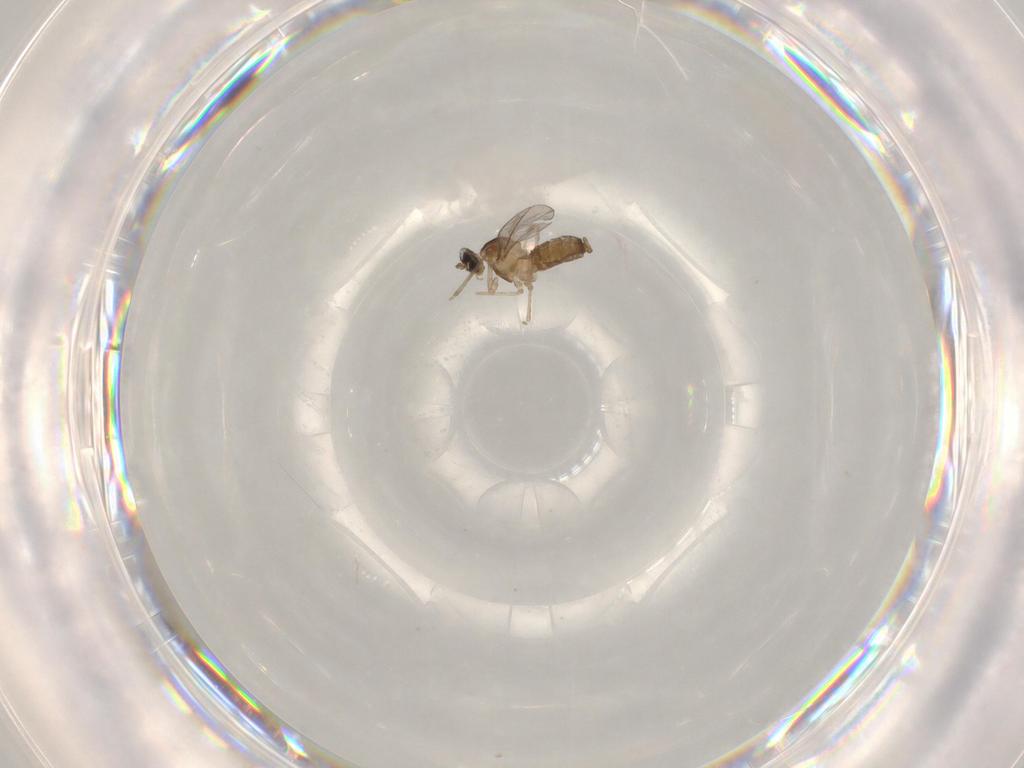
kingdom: Animalia
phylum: Arthropoda
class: Insecta
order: Diptera
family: Cecidomyiidae
